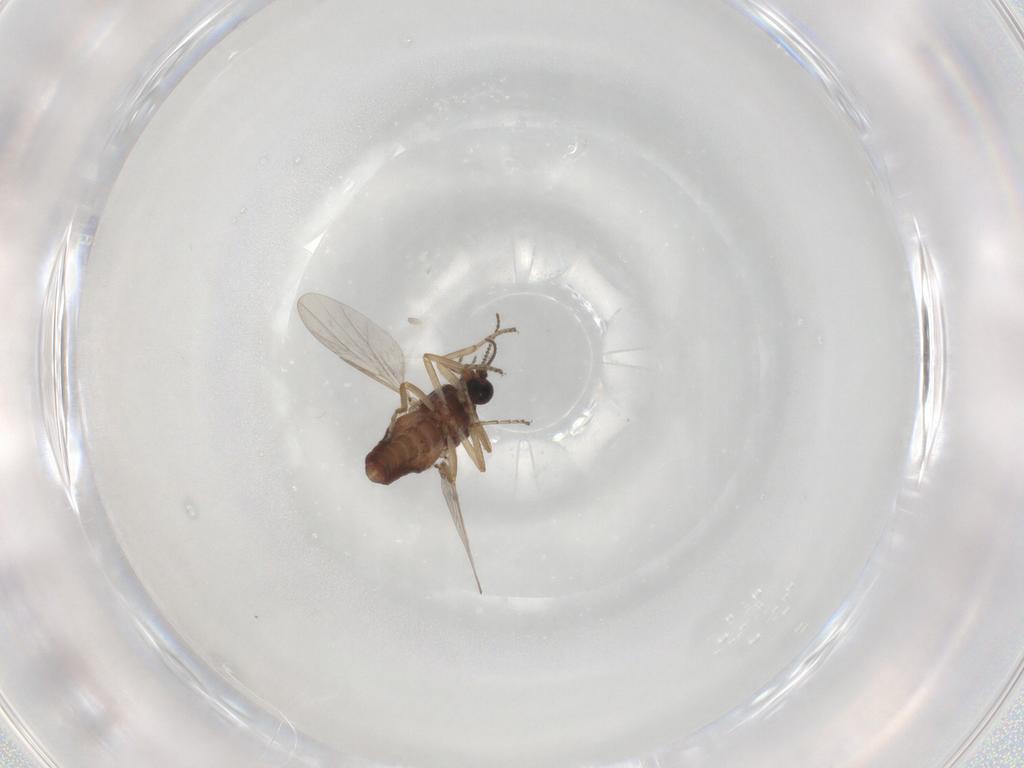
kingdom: Animalia
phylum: Arthropoda
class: Insecta
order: Diptera
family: Ceratopogonidae
